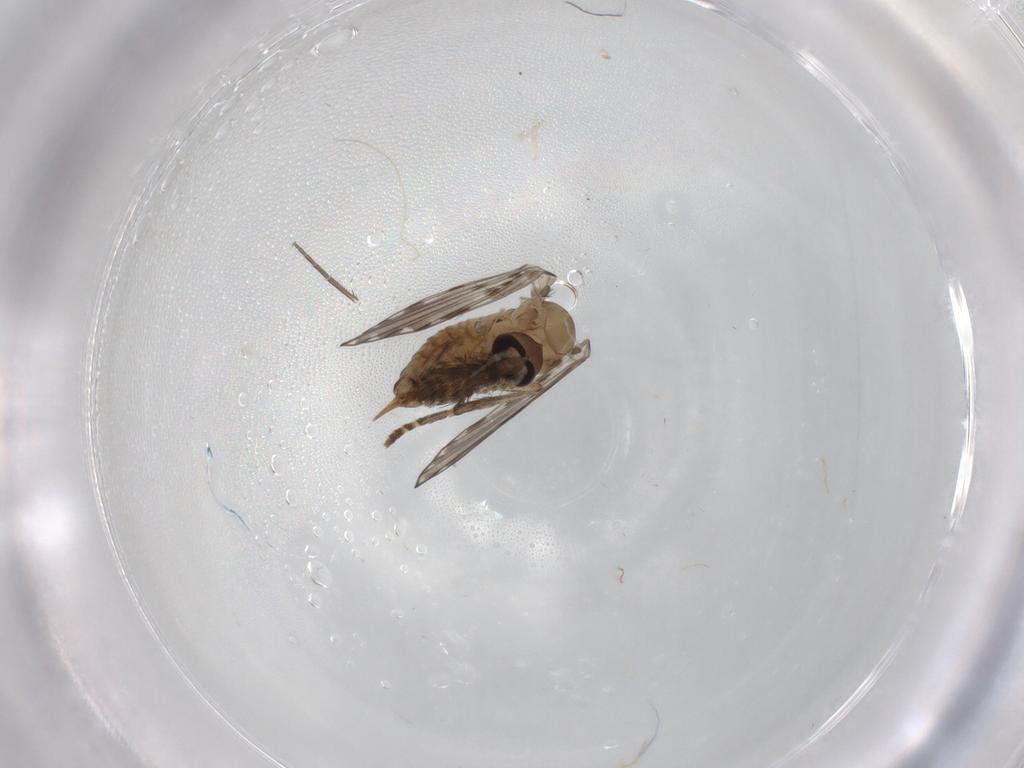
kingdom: Animalia
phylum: Arthropoda
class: Insecta
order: Diptera
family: Psychodidae
